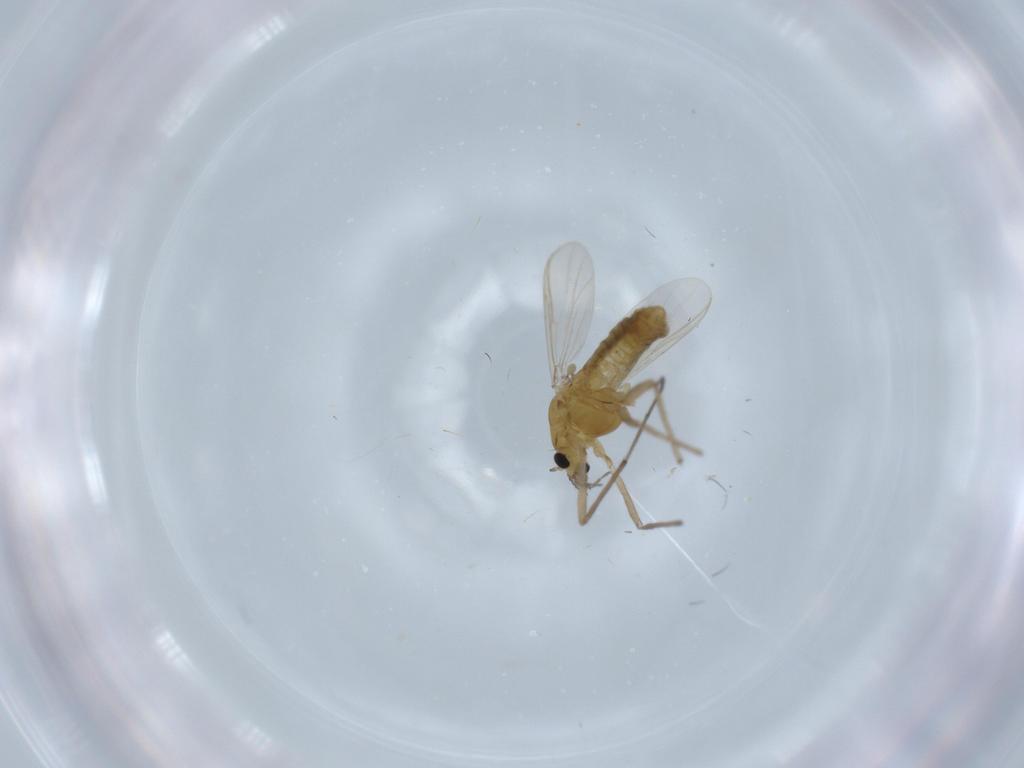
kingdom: Animalia
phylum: Arthropoda
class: Insecta
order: Diptera
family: Chironomidae
